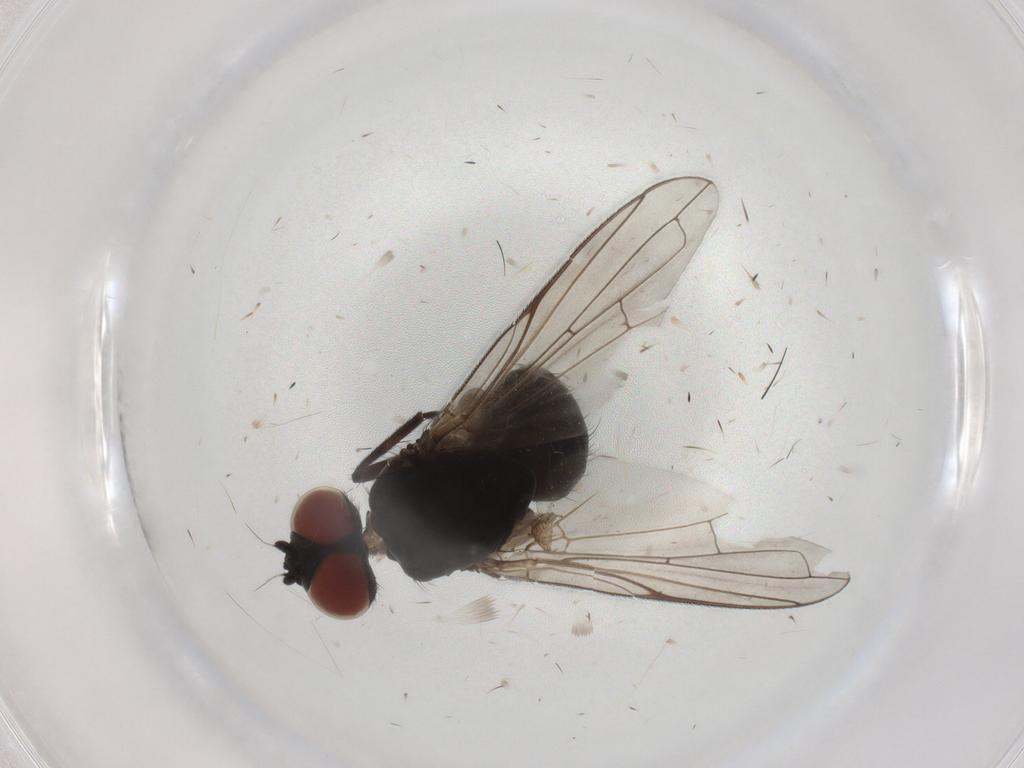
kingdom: Animalia
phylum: Arthropoda
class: Insecta
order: Diptera
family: Tachinidae
